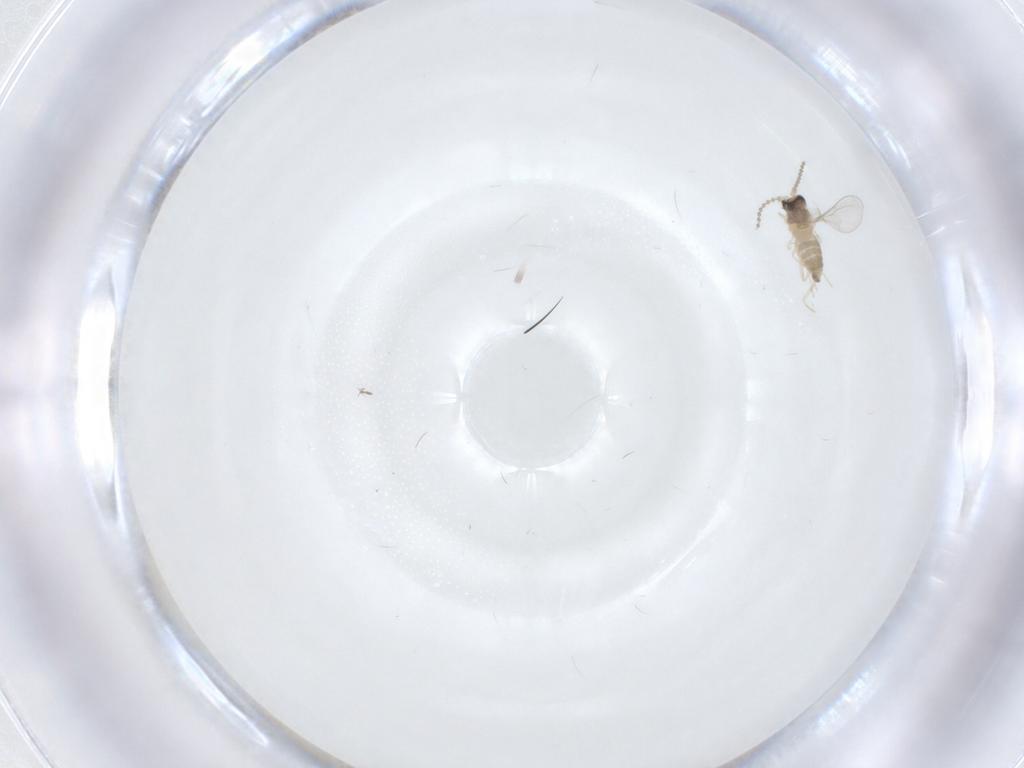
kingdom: Animalia
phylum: Arthropoda
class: Insecta
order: Diptera
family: Cecidomyiidae
